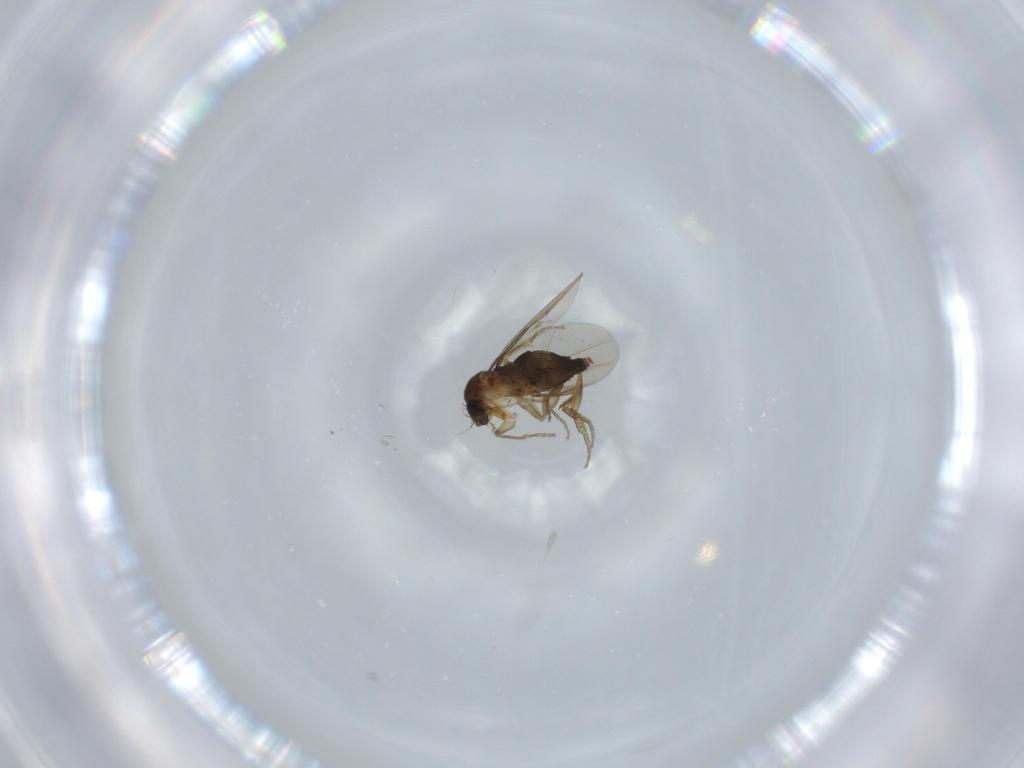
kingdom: Animalia
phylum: Arthropoda
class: Insecta
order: Diptera
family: Phoridae
